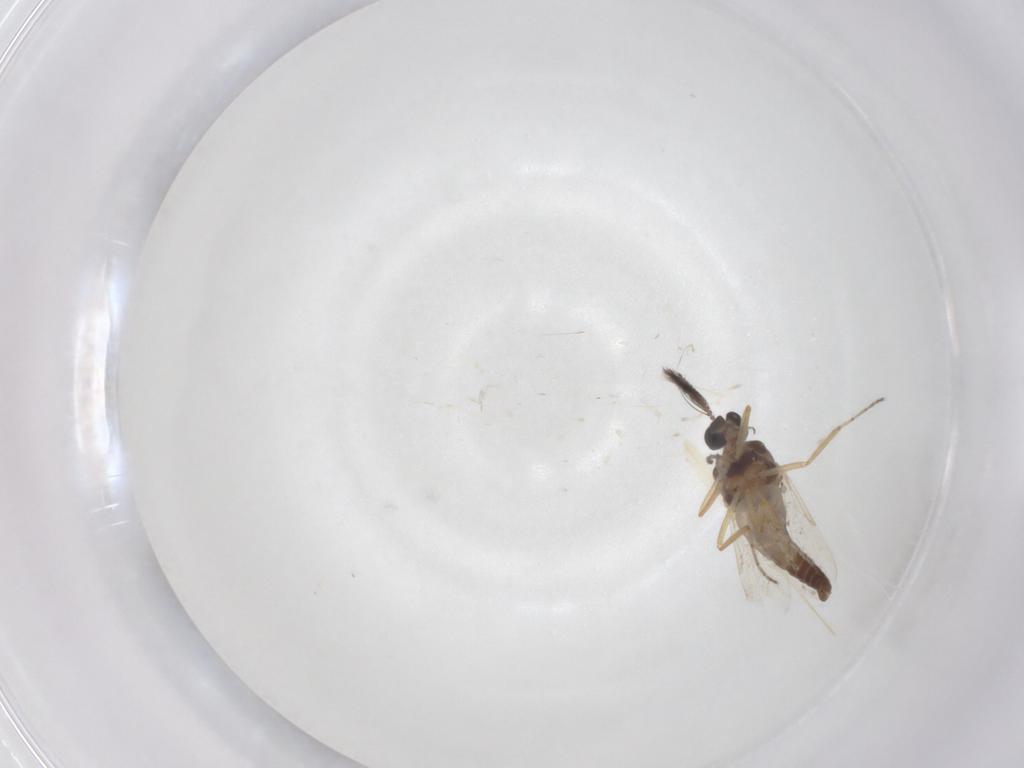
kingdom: Animalia
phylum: Arthropoda
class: Insecta
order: Diptera
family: Ceratopogonidae
